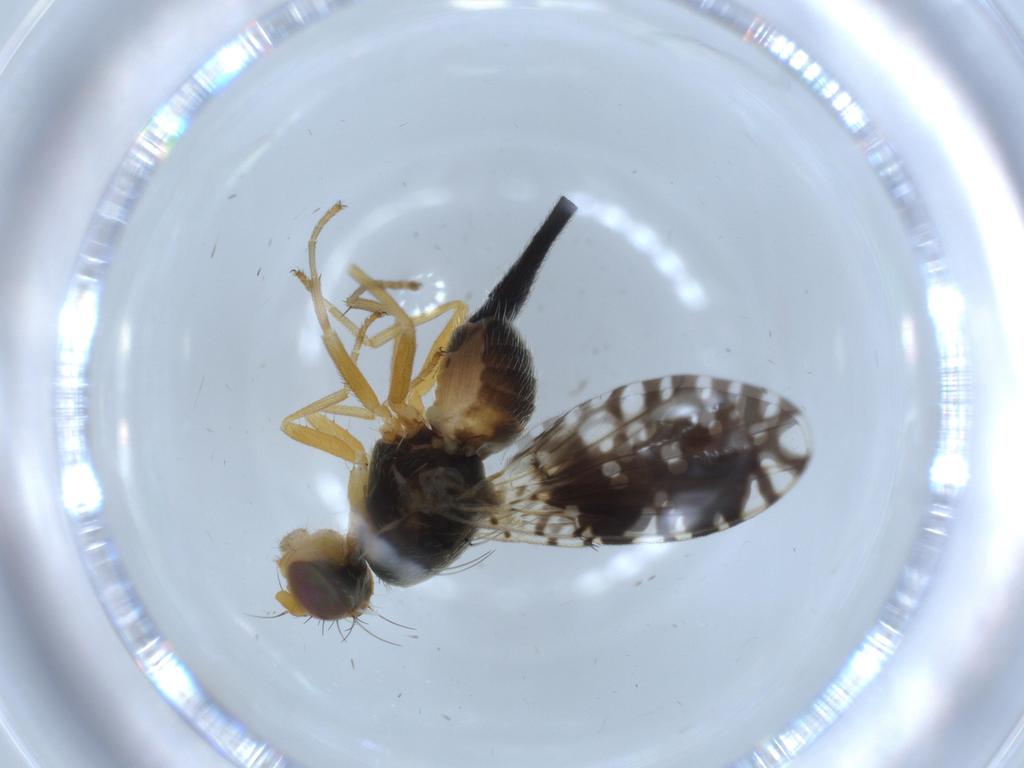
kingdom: Animalia
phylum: Arthropoda
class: Insecta
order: Diptera
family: Tephritidae
